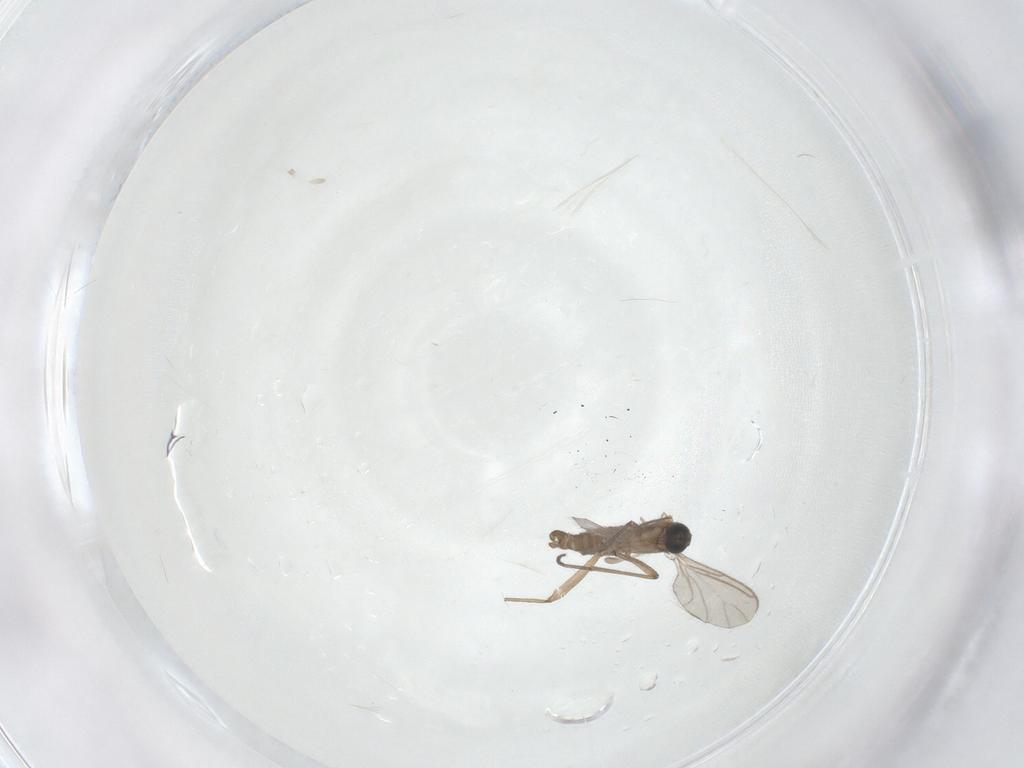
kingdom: Animalia
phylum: Arthropoda
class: Insecta
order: Diptera
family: Sciaridae
